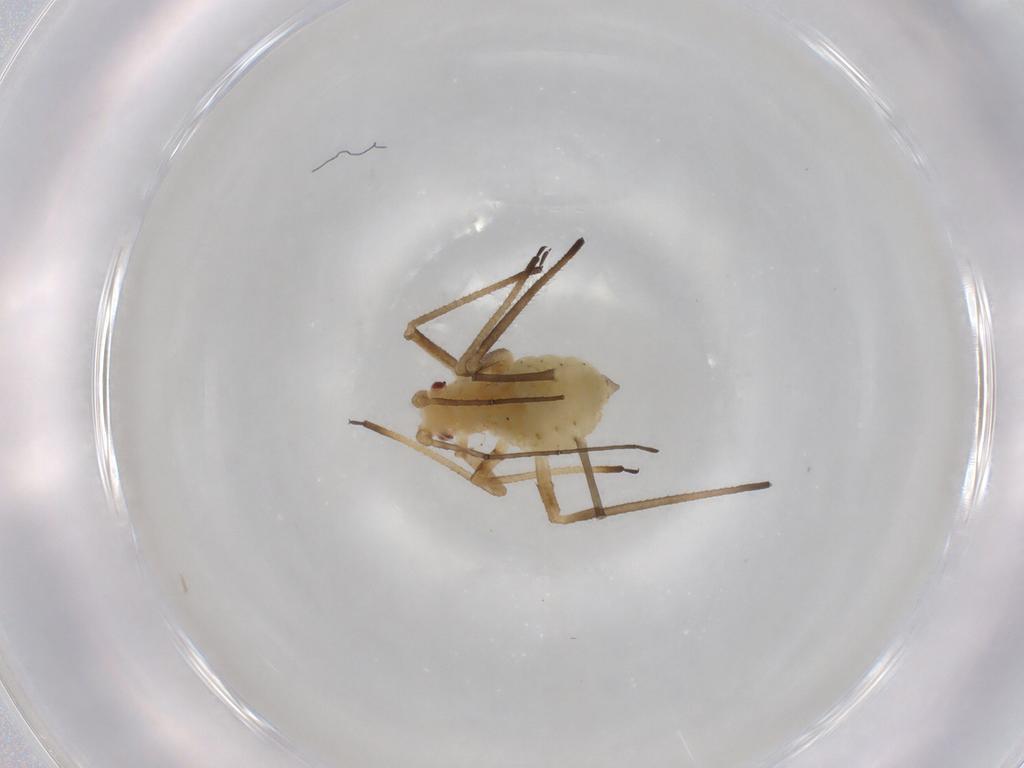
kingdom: Animalia
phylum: Arthropoda
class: Insecta
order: Hemiptera
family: Aphididae
